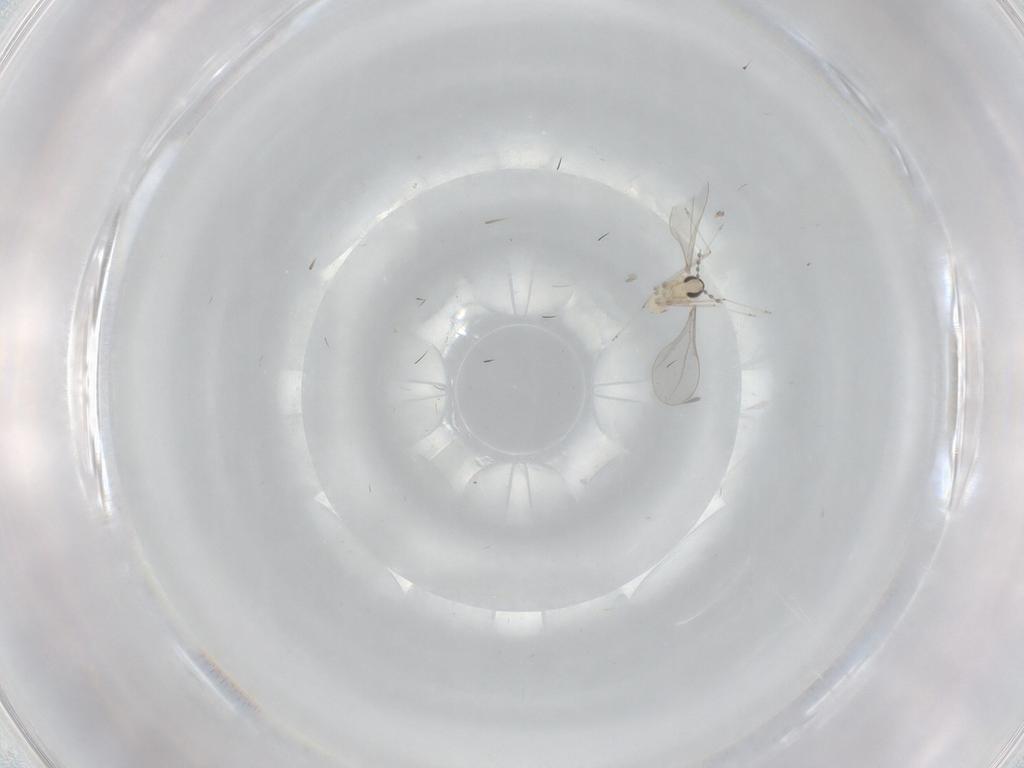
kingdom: Animalia
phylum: Arthropoda
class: Insecta
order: Diptera
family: Cecidomyiidae
